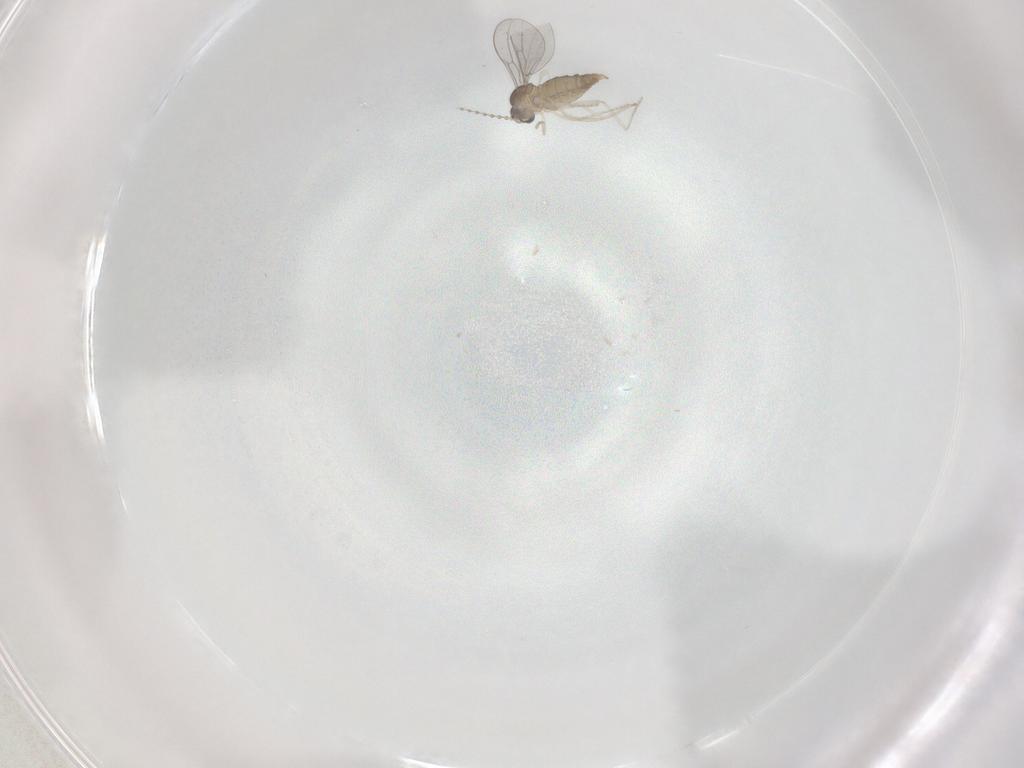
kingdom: Animalia
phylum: Arthropoda
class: Insecta
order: Diptera
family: Cecidomyiidae
